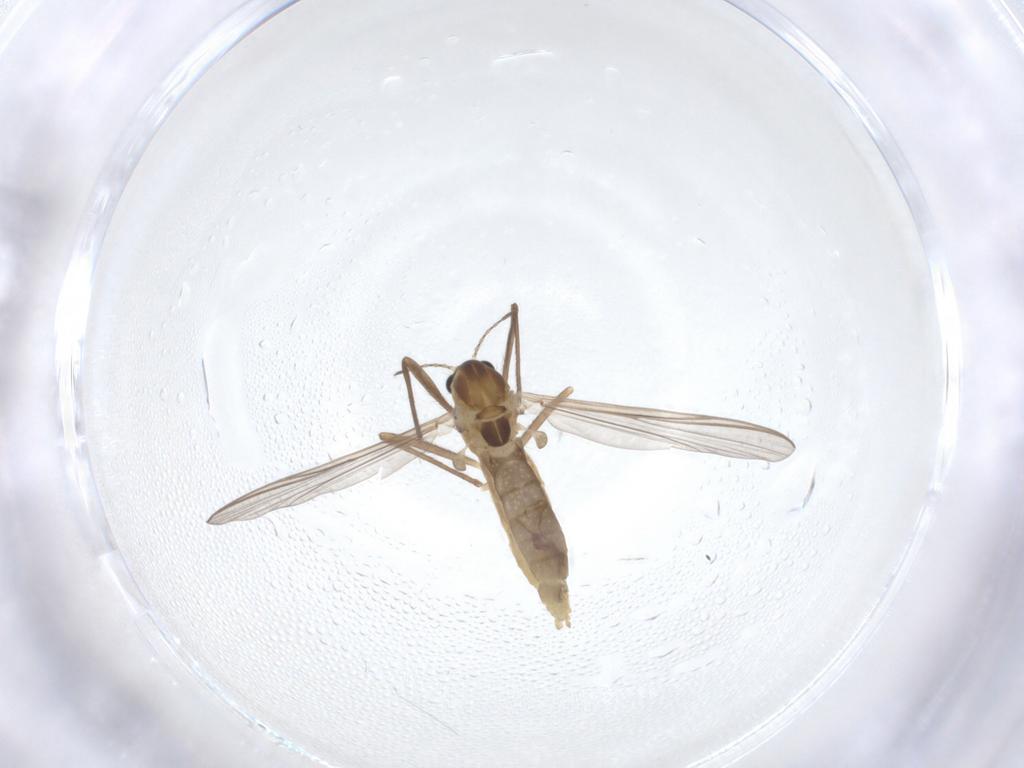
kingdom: Animalia
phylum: Arthropoda
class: Insecta
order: Diptera
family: Chironomidae
